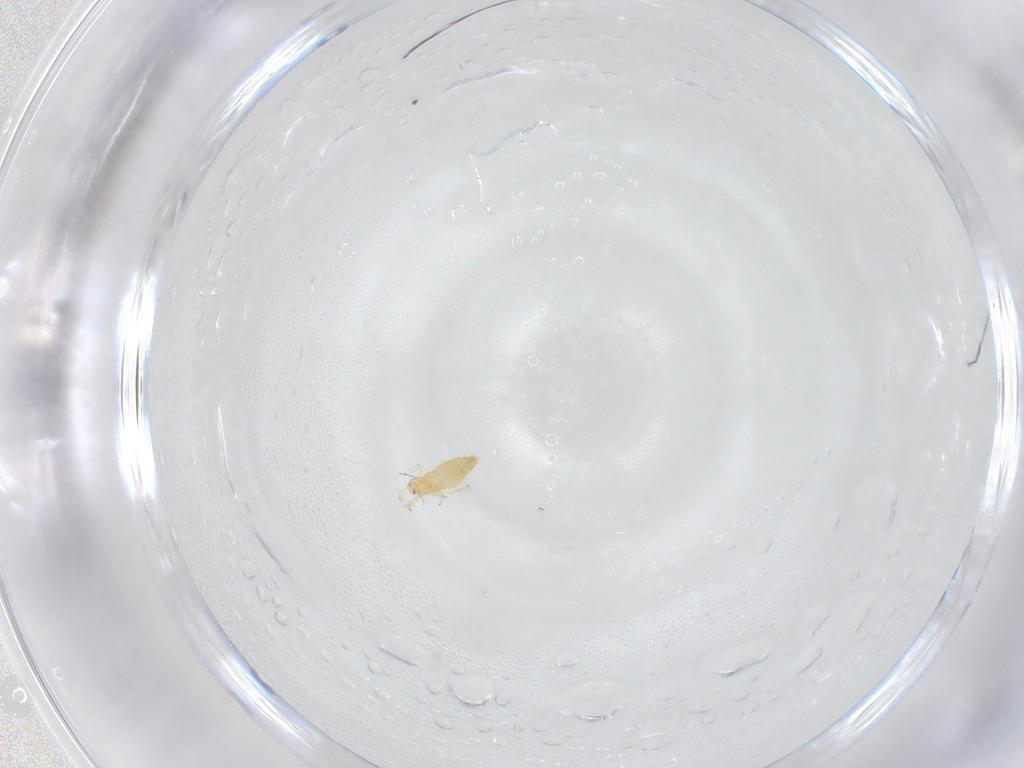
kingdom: Animalia
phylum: Arthropoda
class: Insecta
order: Thysanoptera
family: Aeolothripidae
